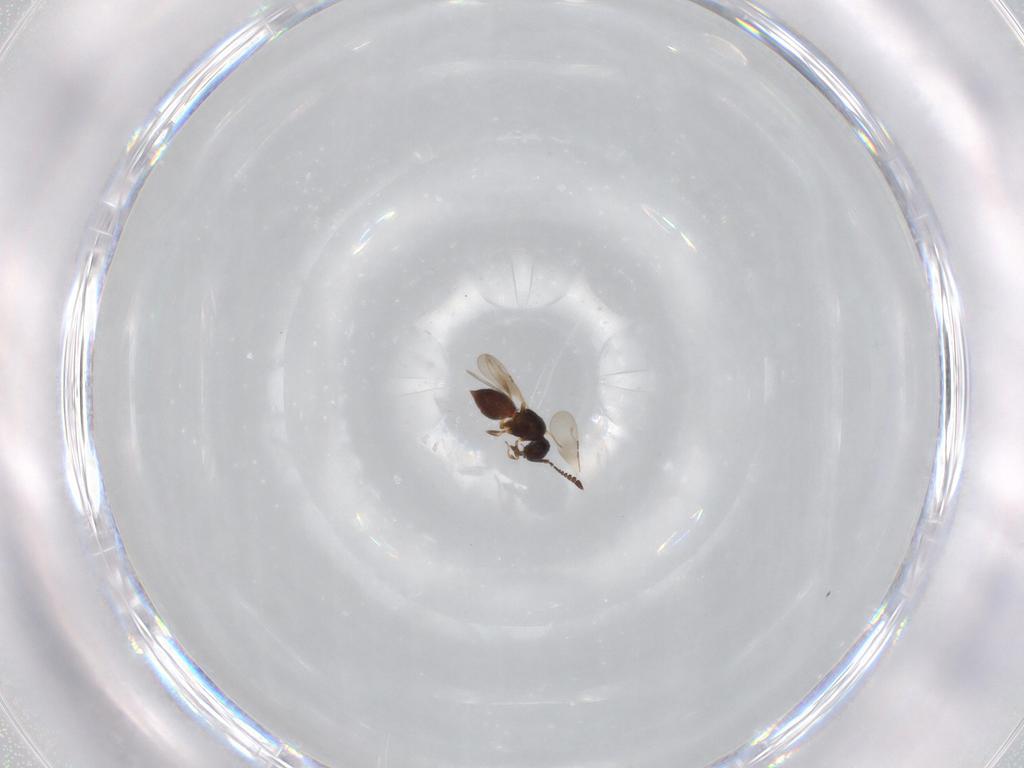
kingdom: Animalia
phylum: Arthropoda
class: Insecta
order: Hymenoptera
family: Ceraphronidae
